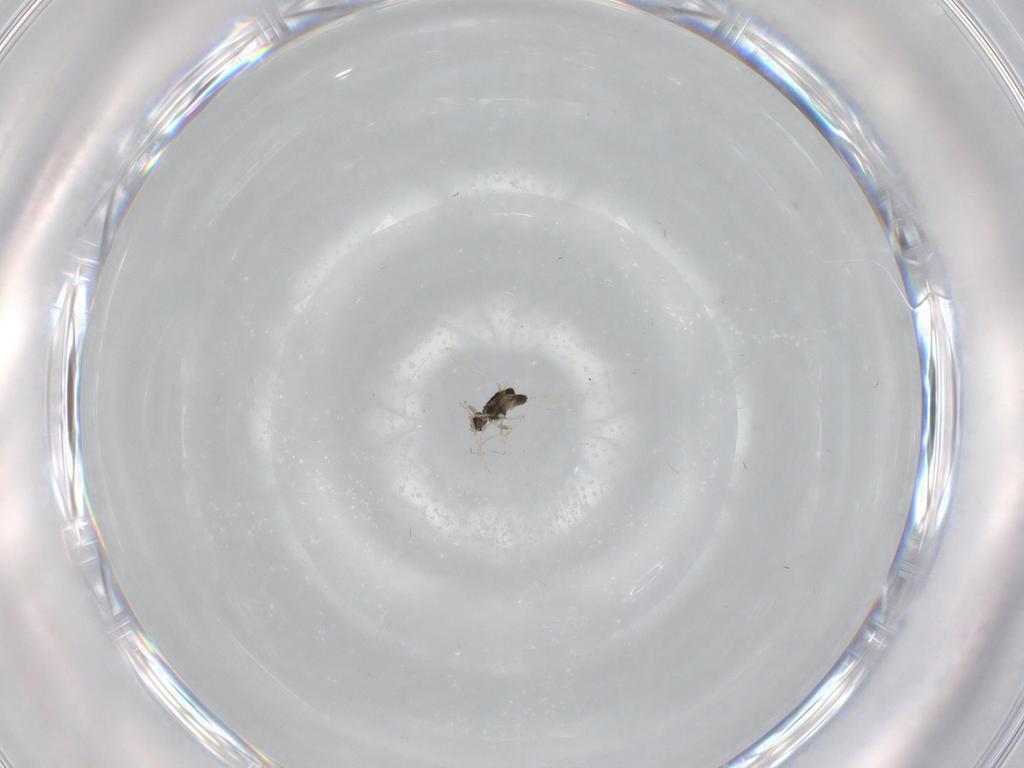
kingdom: Animalia
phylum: Arthropoda
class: Insecta
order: Diptera
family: Chironomidae
